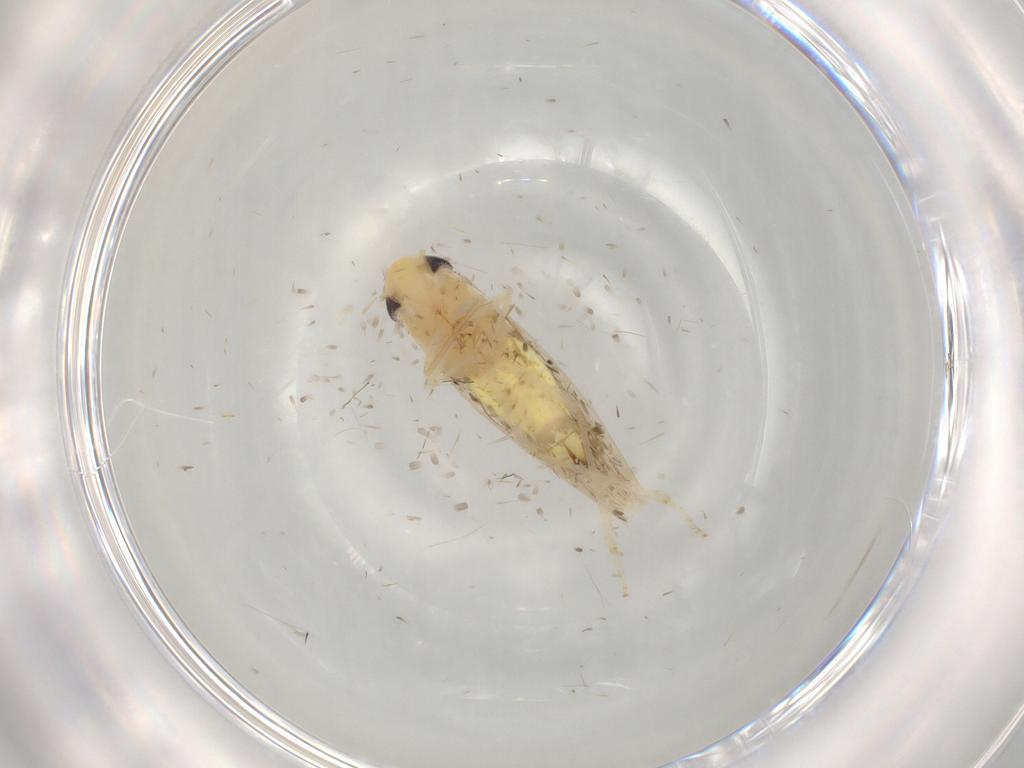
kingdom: Animalia
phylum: Arthropoda
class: Insecta
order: Hemiptera
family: Cicadellidae
